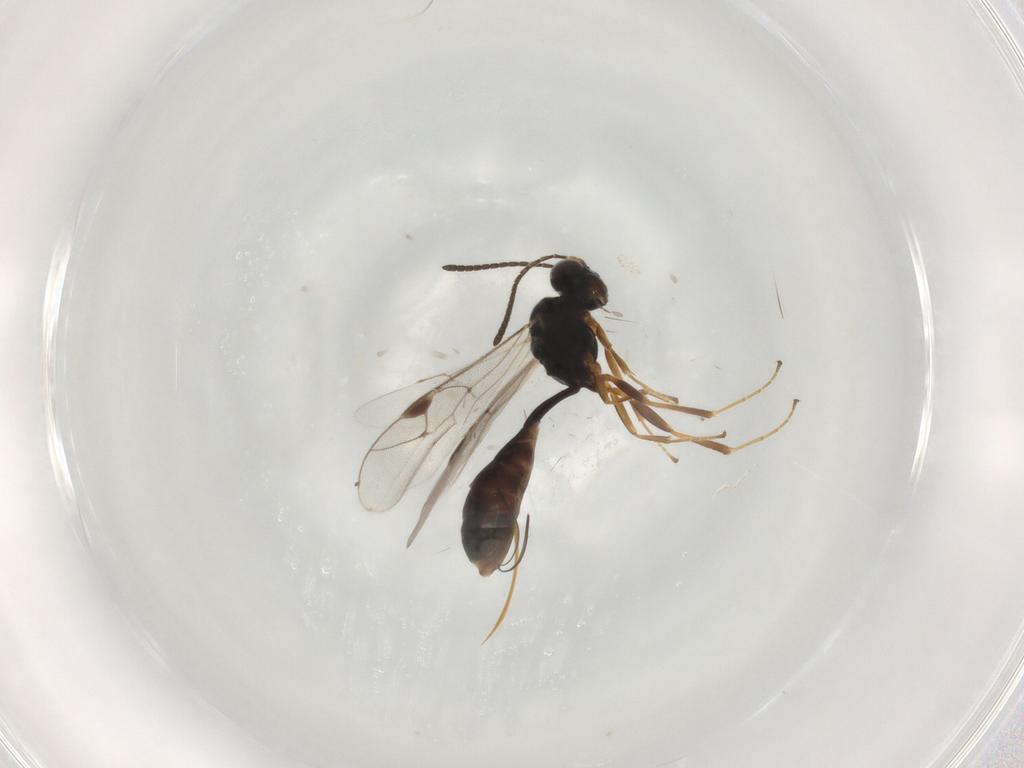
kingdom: Animalia
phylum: Arthropoda
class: Insecta
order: Hymenoptera
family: Ichneumonidae
